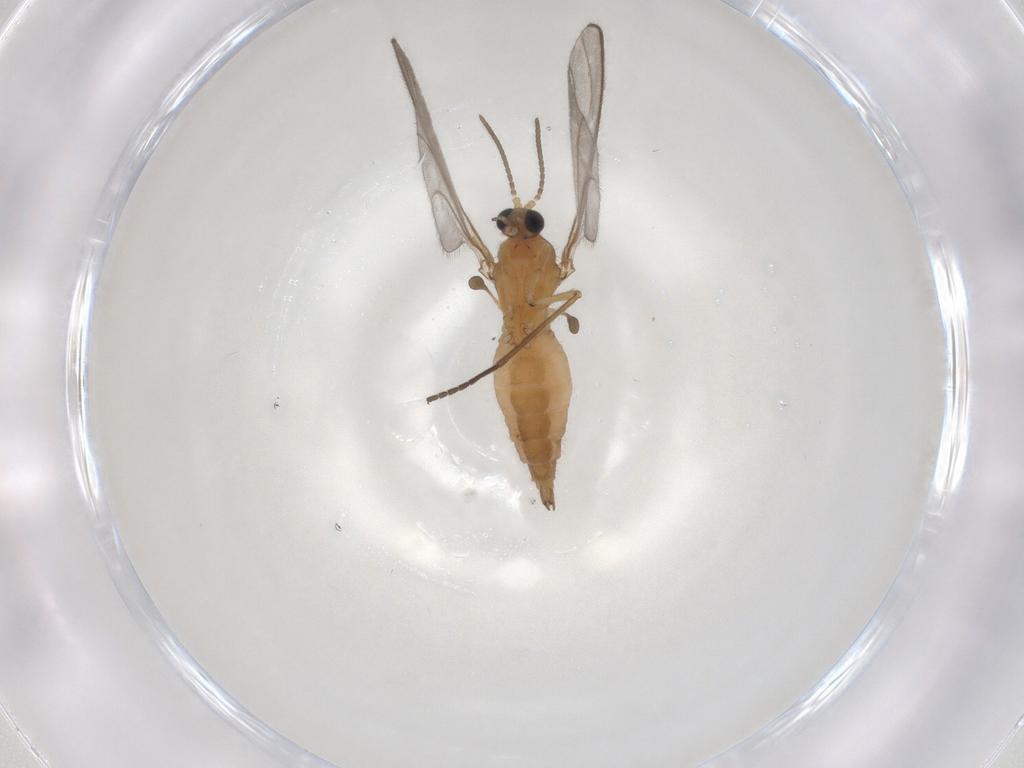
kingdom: Animalia
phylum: Arthropoda
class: Insecta
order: Diptera
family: Sciaridae
